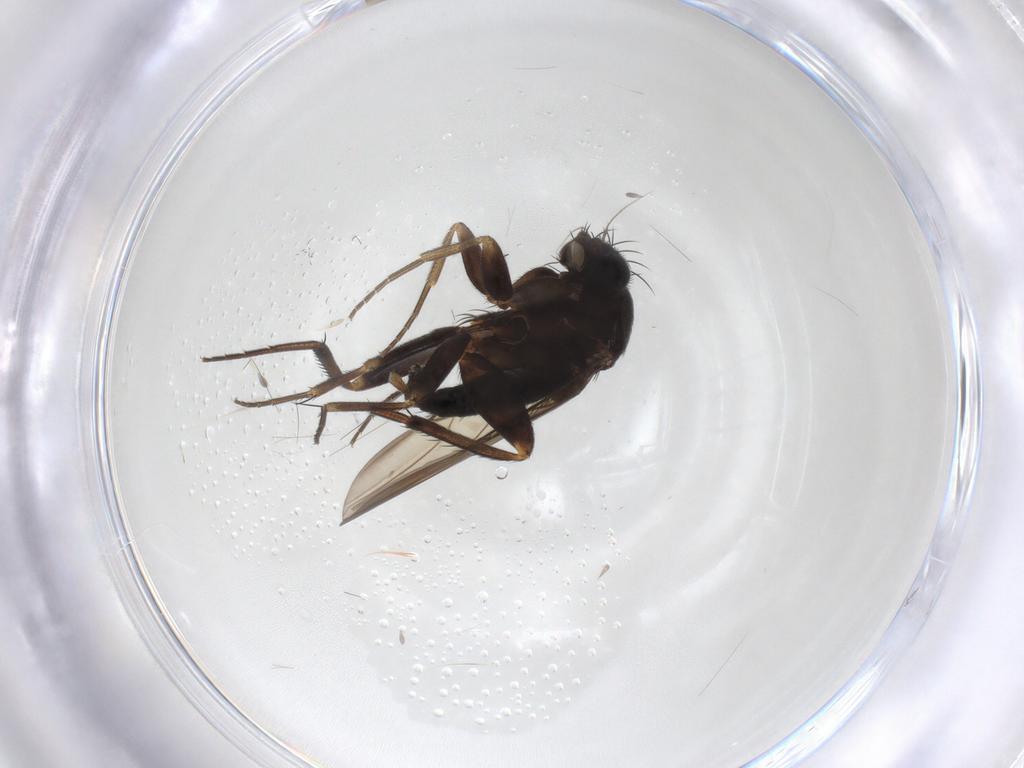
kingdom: Animalia
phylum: Arthropoda
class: Insecta
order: Diptera
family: Phoridae
